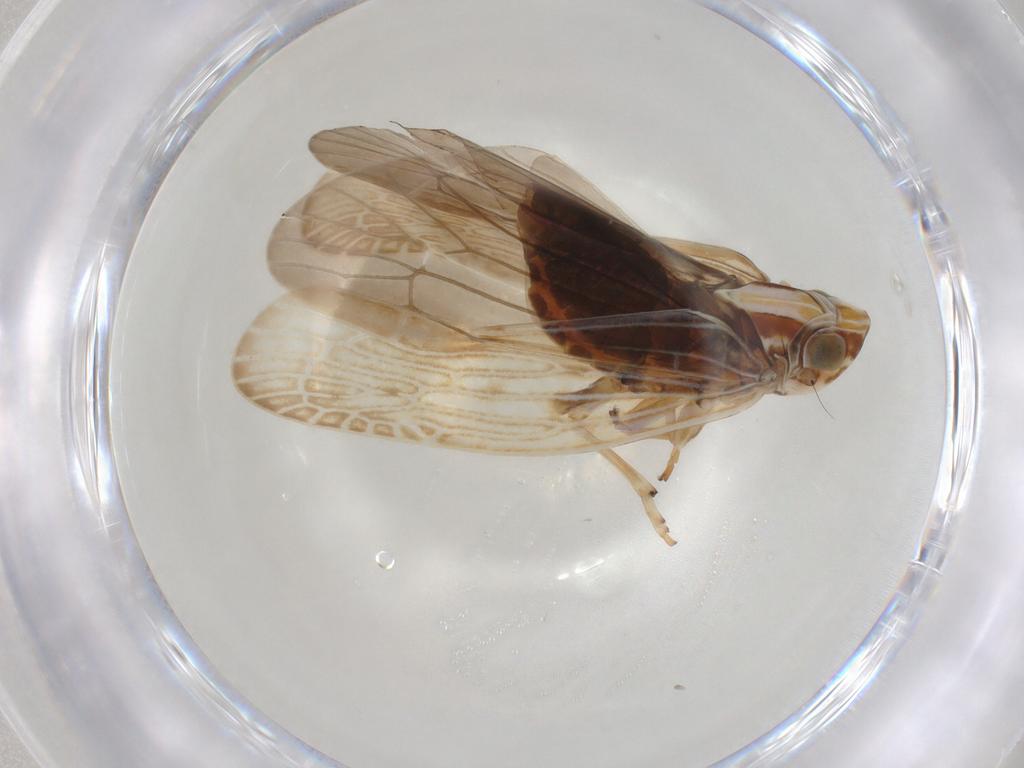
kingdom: Animalia
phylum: Arthropoda
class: Insecta
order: Hemiptera
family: Achilidae
